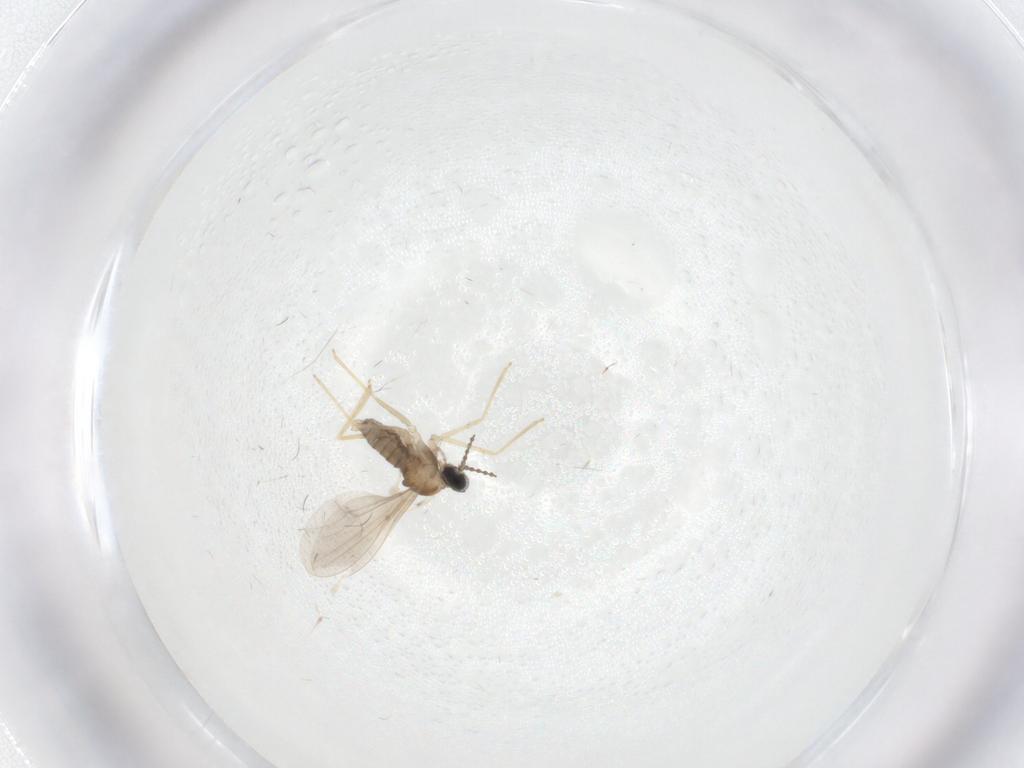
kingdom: Animalia
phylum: Arthropoda
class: Insecta
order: Diptera
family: Cecidomyiidae
